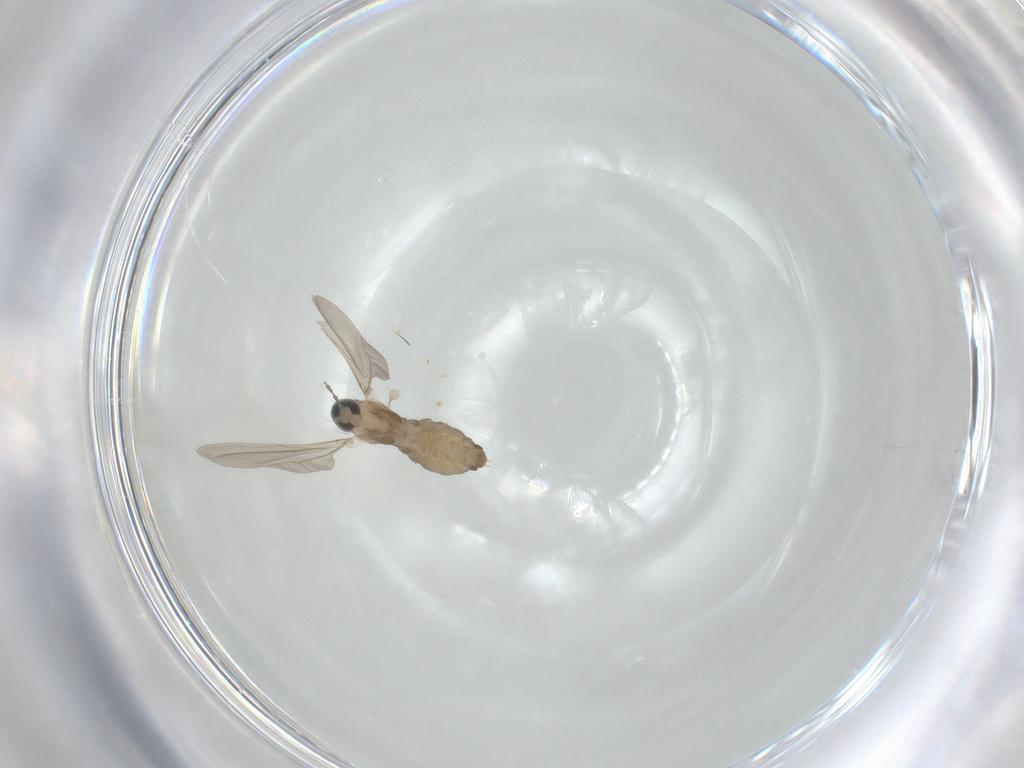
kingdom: Animalia
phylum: Arthropoda
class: Insecta
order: Diptera
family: Cecidomyiidae
